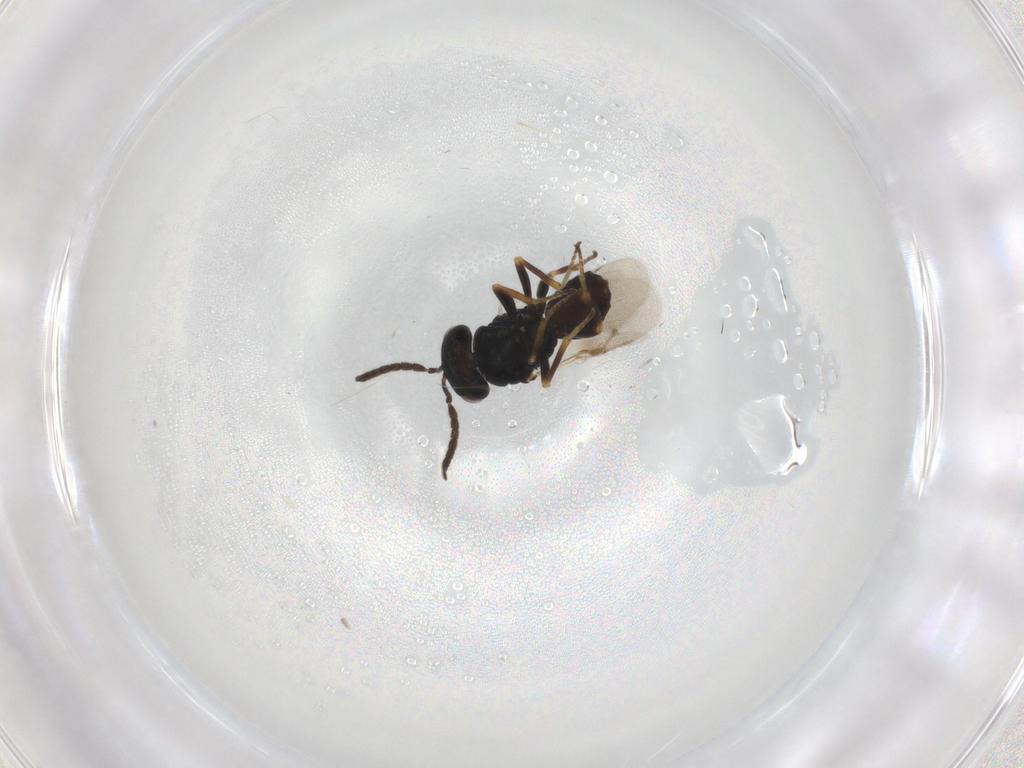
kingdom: Animalia
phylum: Arthropoda
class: Insecta
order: Hymenoptera
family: Pteromalidae
